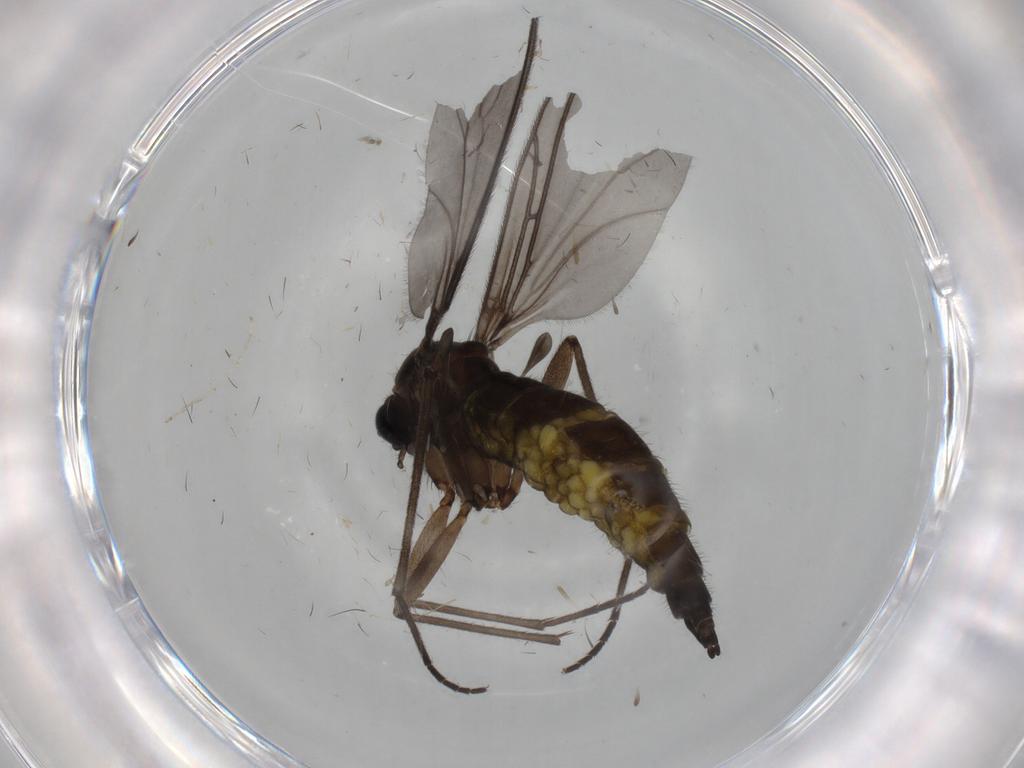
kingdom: Animalia
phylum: Arthropoda
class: Insecta
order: Diptera
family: Sciaridae
